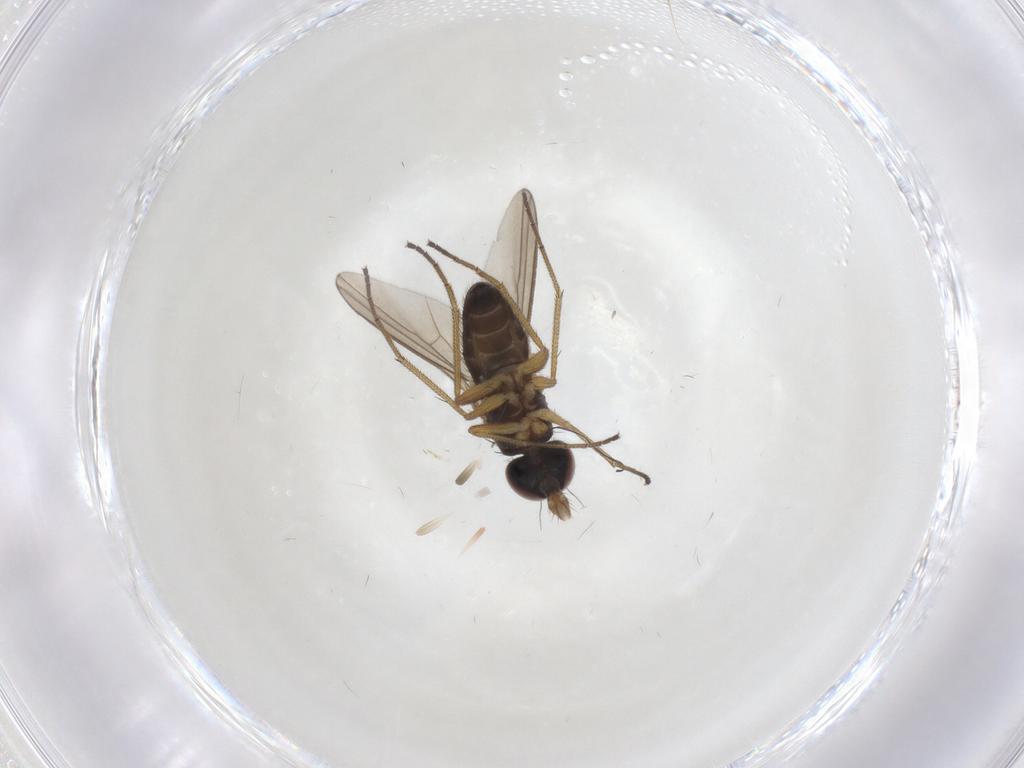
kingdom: Animalia
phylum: Arthropoda
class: Insecta
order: Diptera
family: Dolichopodidae
